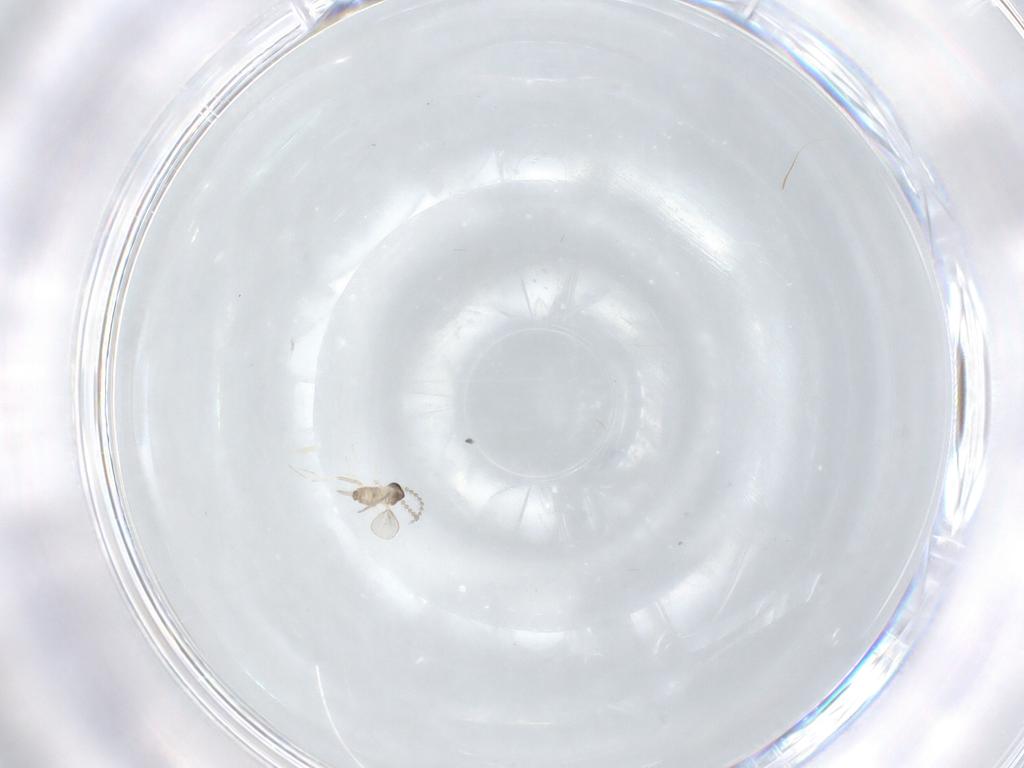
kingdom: Animalia
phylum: Arthropoda
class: Insecta
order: Diptera
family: Cecidomyiidae
